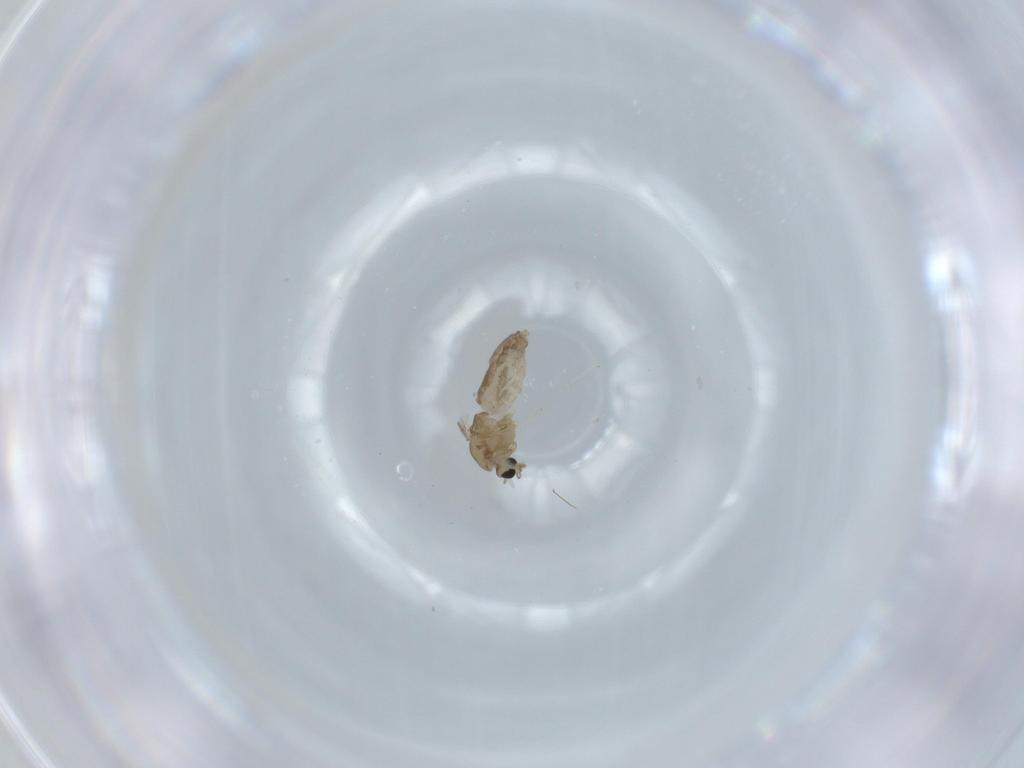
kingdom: Animalia
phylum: Arthropoda
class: Insecta
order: Diptera
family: Chironomidae
